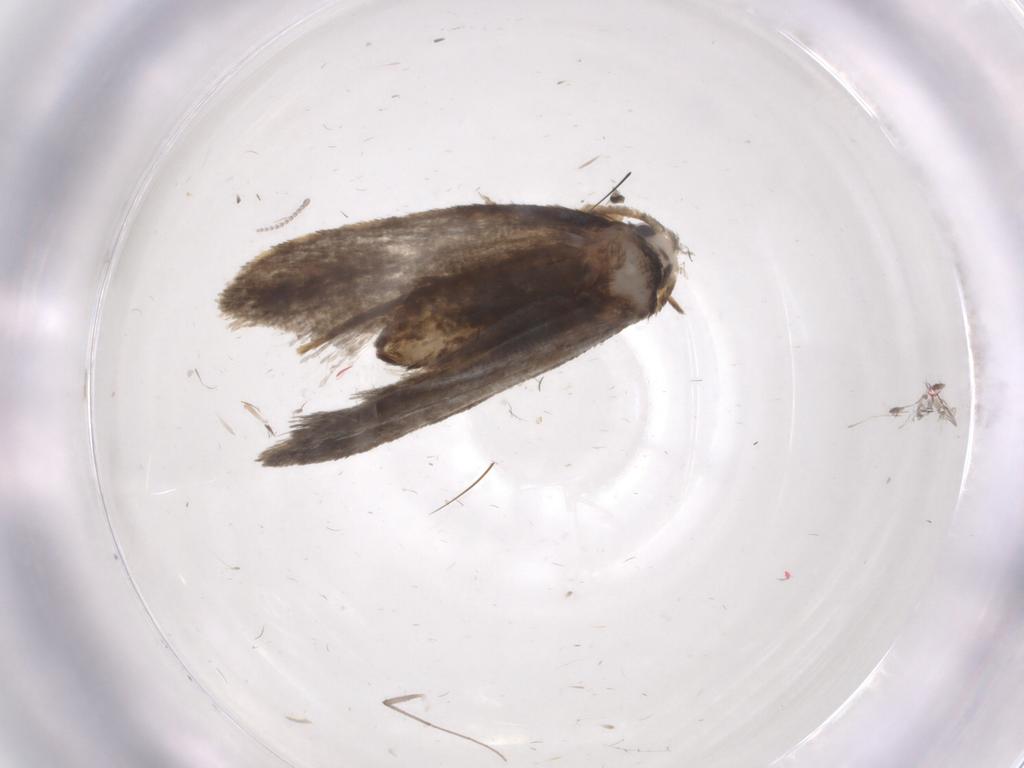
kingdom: Animalia
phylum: Arthropoda
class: Insecta
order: Lepidoptera
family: Psychidae
